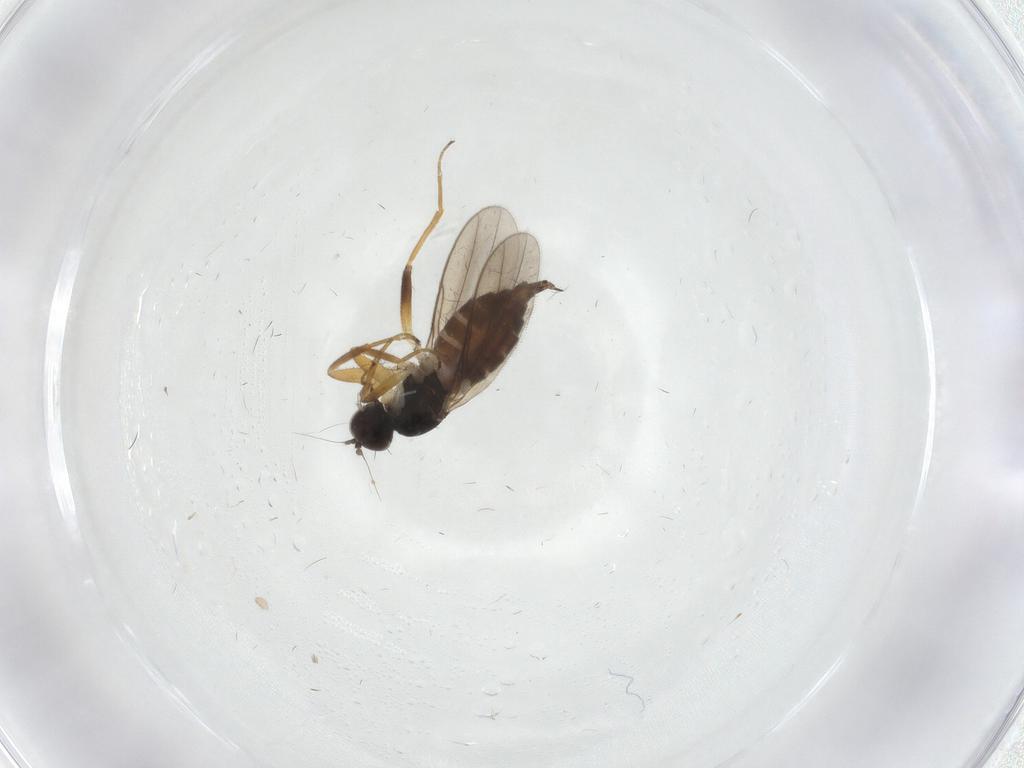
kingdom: Animalia
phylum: Arthropoda
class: Insecta
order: Diptera
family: Hybotidae
